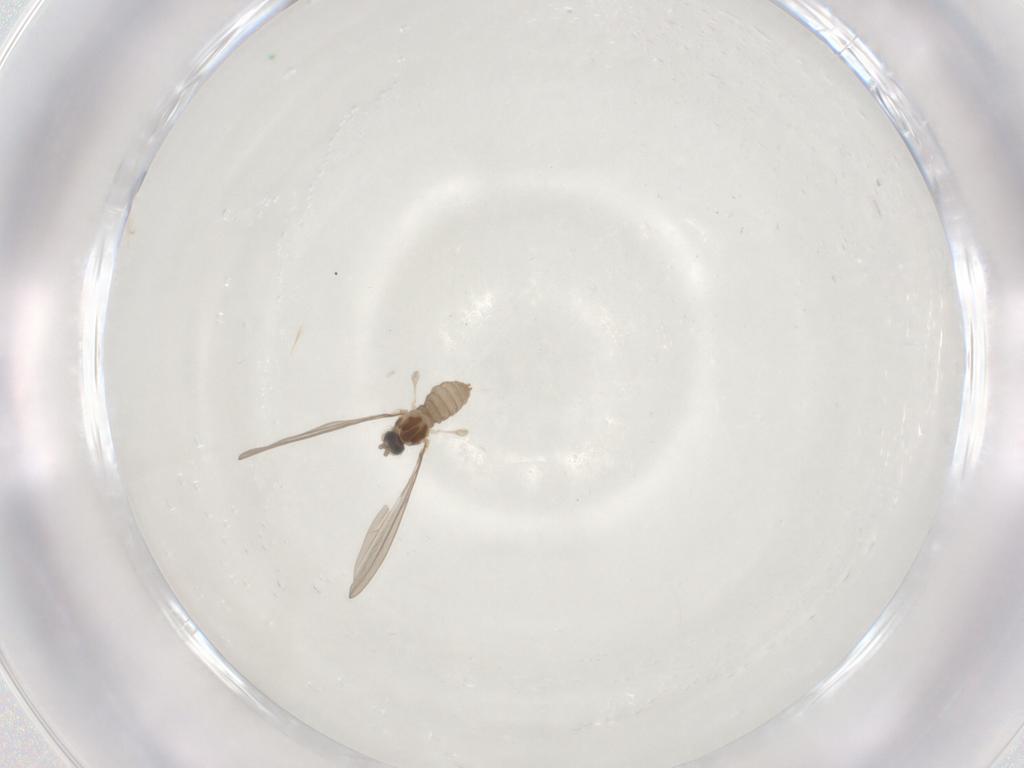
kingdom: Animalia
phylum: Arthropoda
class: Insecta
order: Diptera
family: Cecidomyiidae
